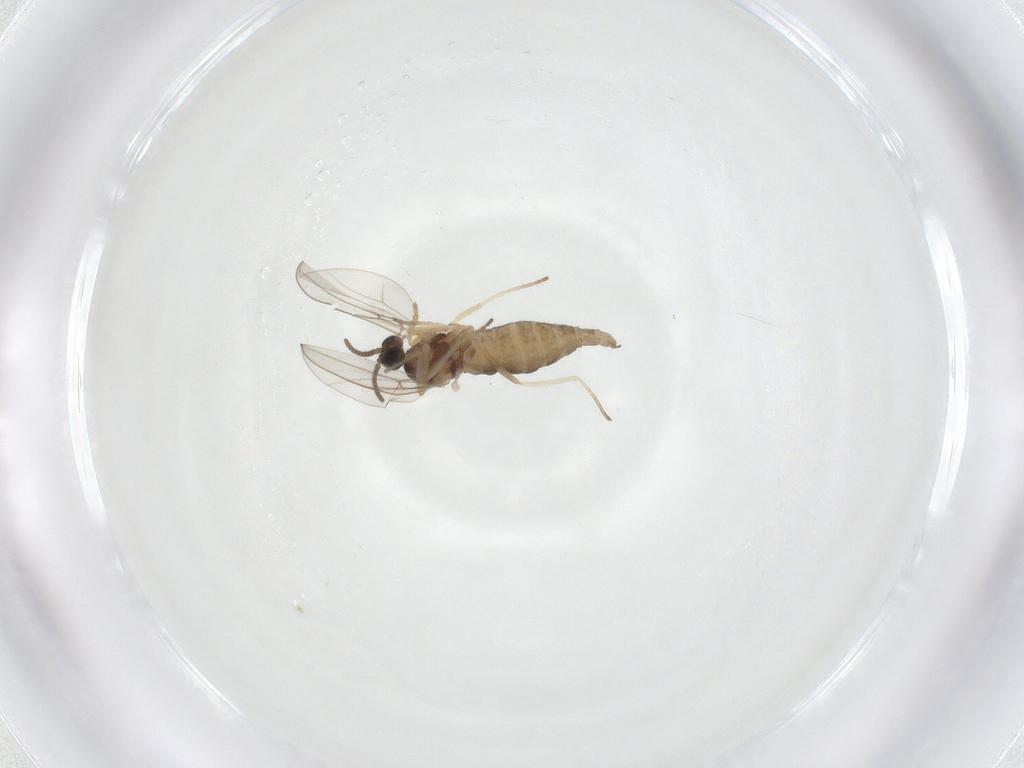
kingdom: Animalia
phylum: Arthropoda
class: Insecta
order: Diptera
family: Cecidomyiidae
